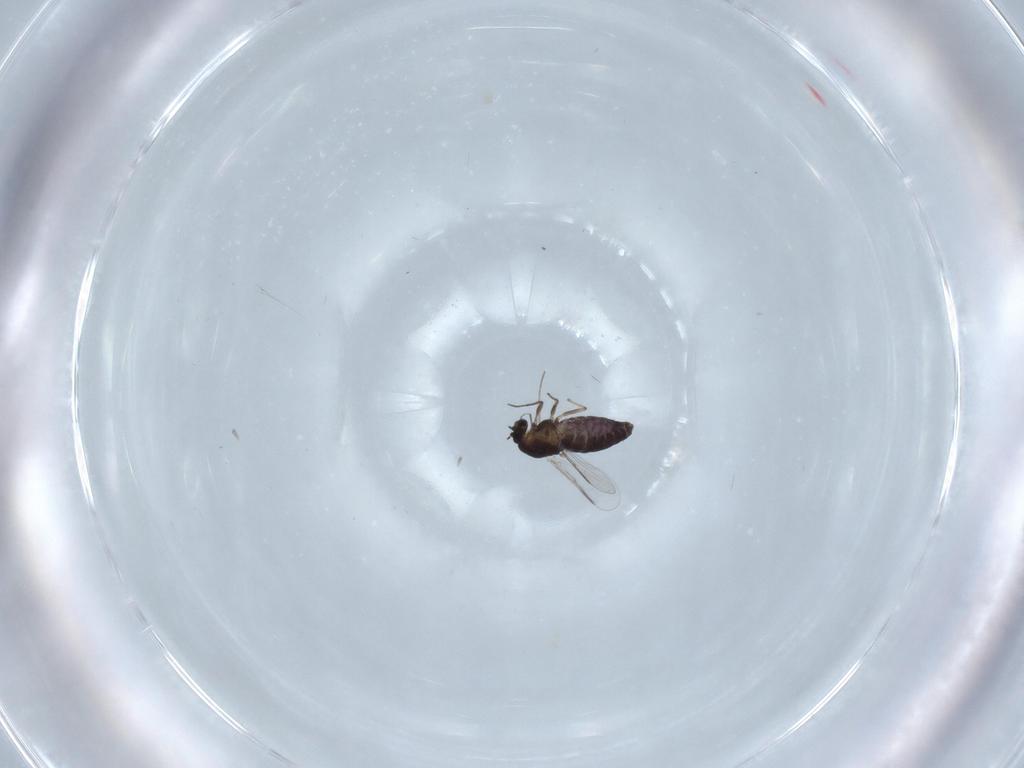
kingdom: Animalia
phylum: Arthropoda
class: Insecta
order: Diptera
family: Chironomidae
